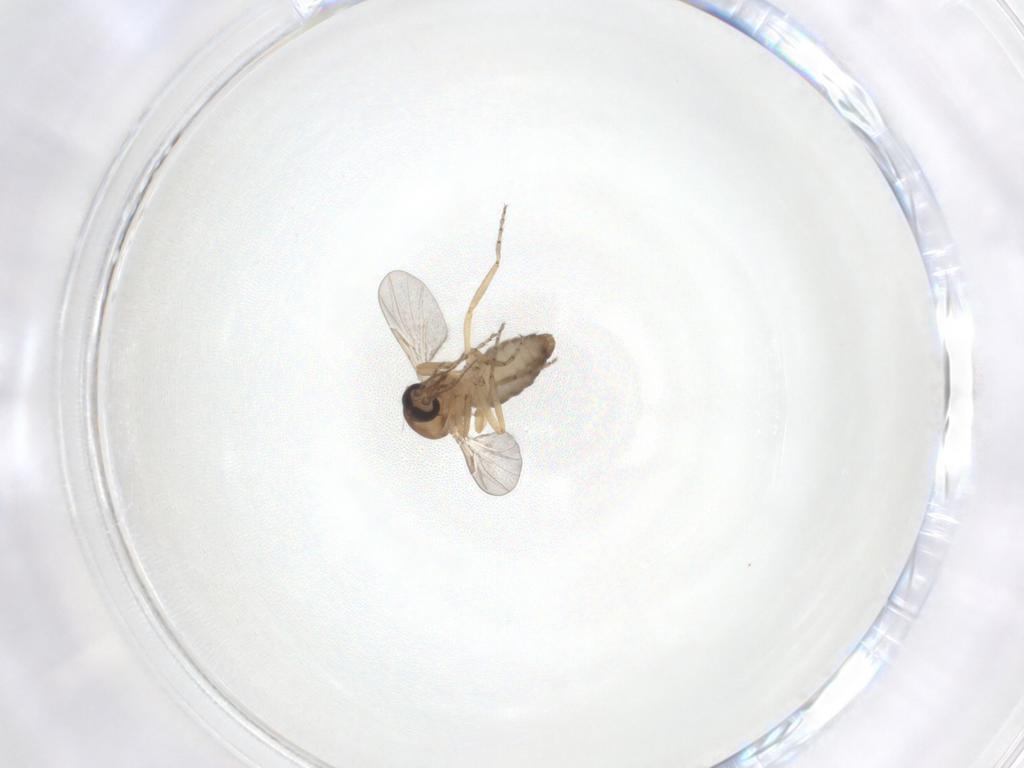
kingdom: Animalia
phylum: Arthropoda
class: Insecta
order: Diptera
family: Ceratopogonidae
